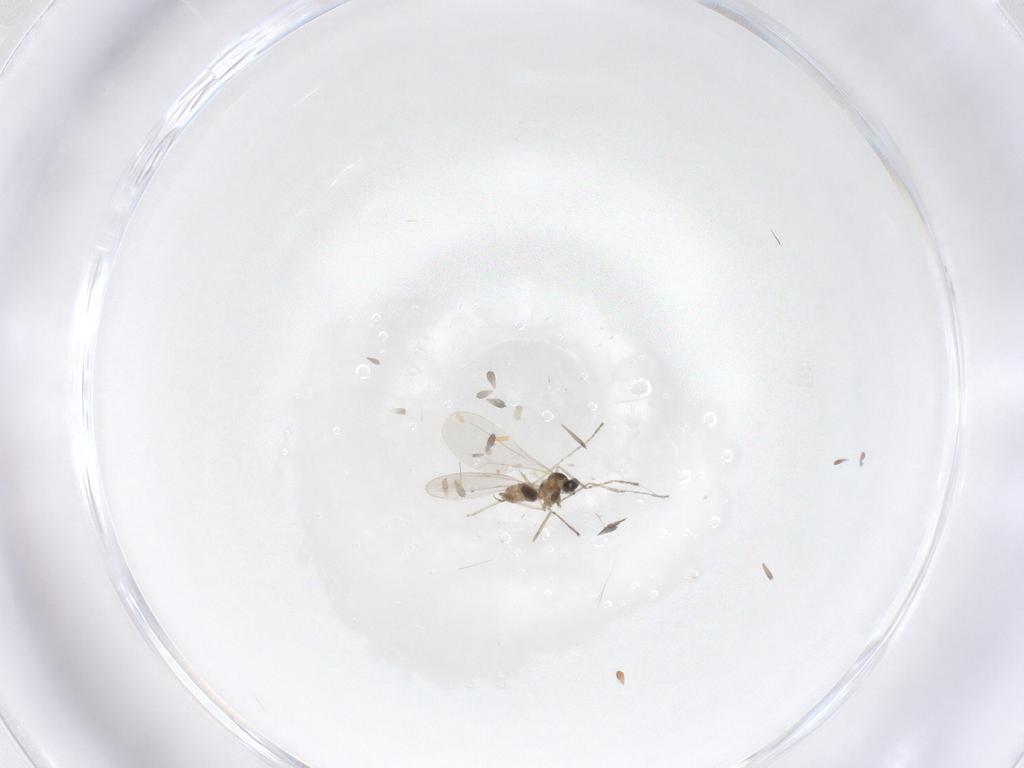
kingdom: Animalia
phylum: Arthropoda
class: Insecta
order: Diptera
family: Cecidomyiidae
